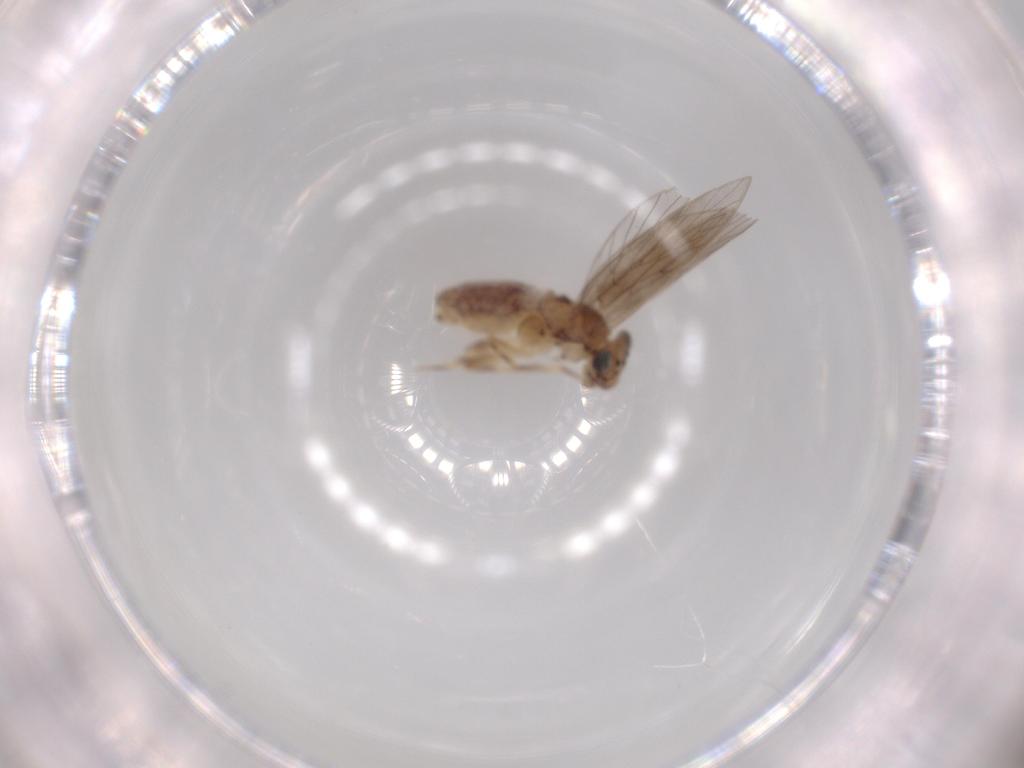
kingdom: Animalia
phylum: Arthropoda
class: Insecta
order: Psocodea
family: Lepidopsocidae
